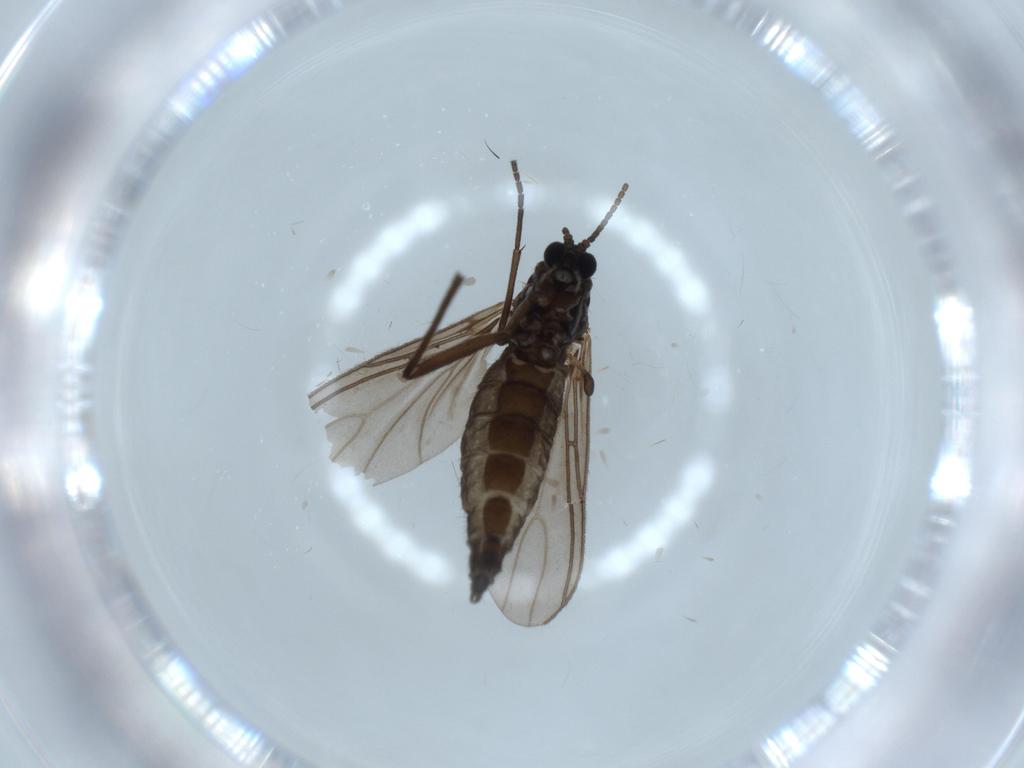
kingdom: Animalia
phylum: Arthropoda
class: Insecta
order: Diptera
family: Sciaridae
